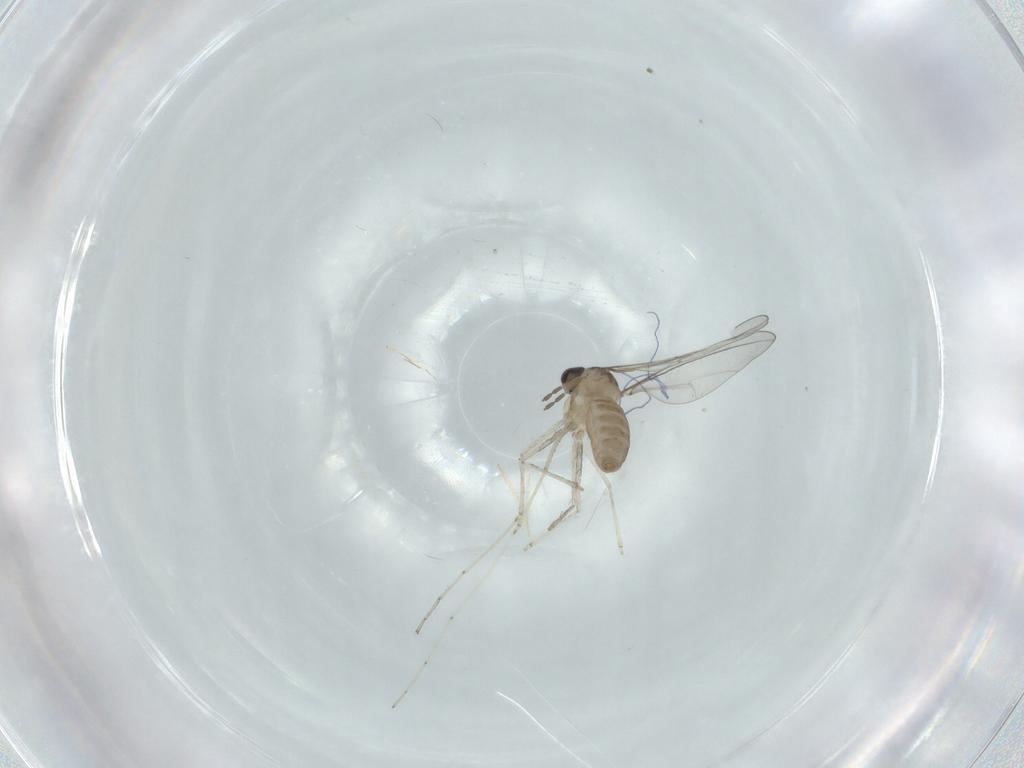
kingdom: Animalia
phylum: Arthropoda
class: Insecta
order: Diptera
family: Cecidomyiidae
